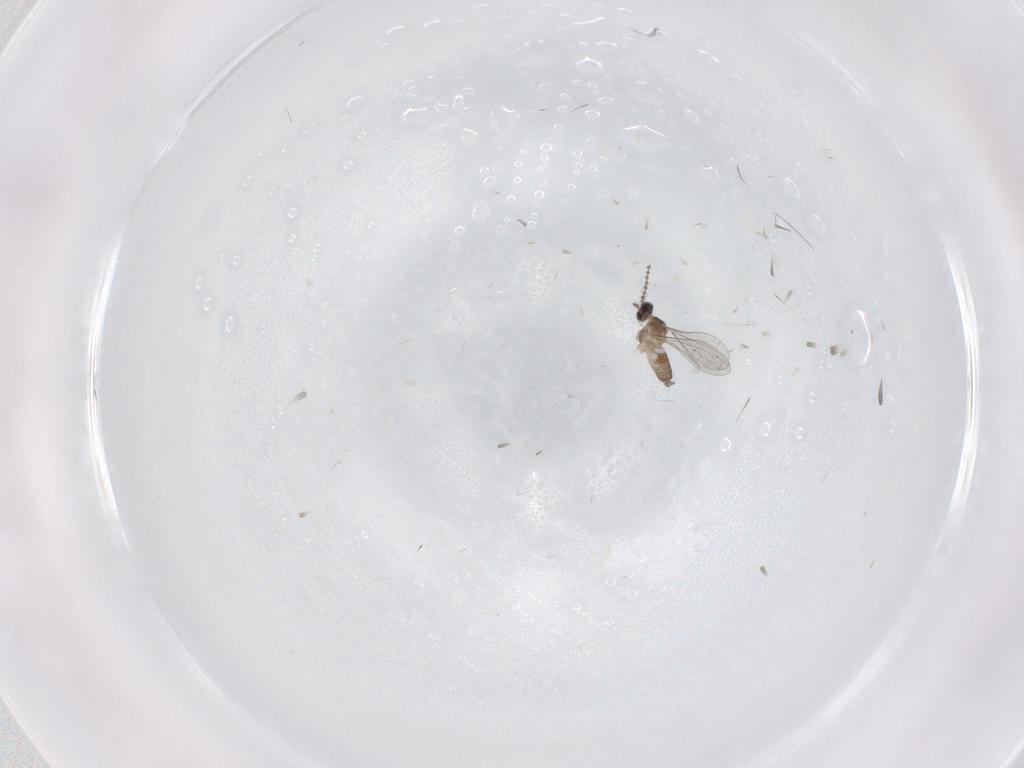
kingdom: Animalia
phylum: Arthropoda
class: Insecta
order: Diptera
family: Cecidomyiidae
